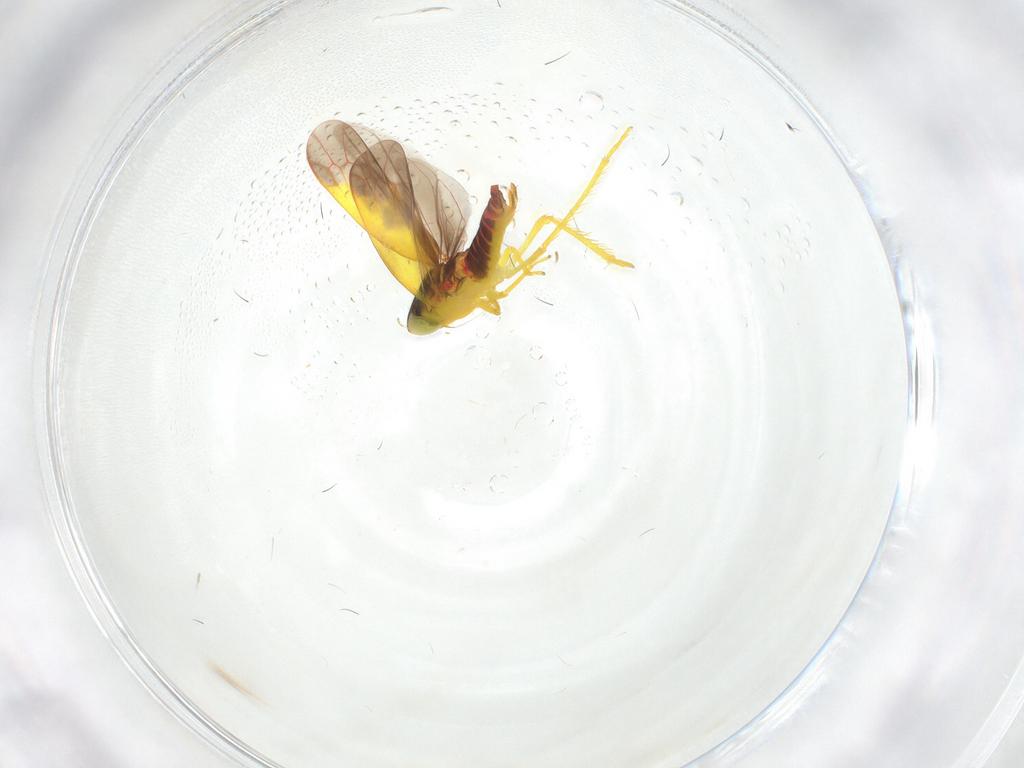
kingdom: Animalia
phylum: Arthropoda
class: Insecta
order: Hemiptera
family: Cicadellidae
